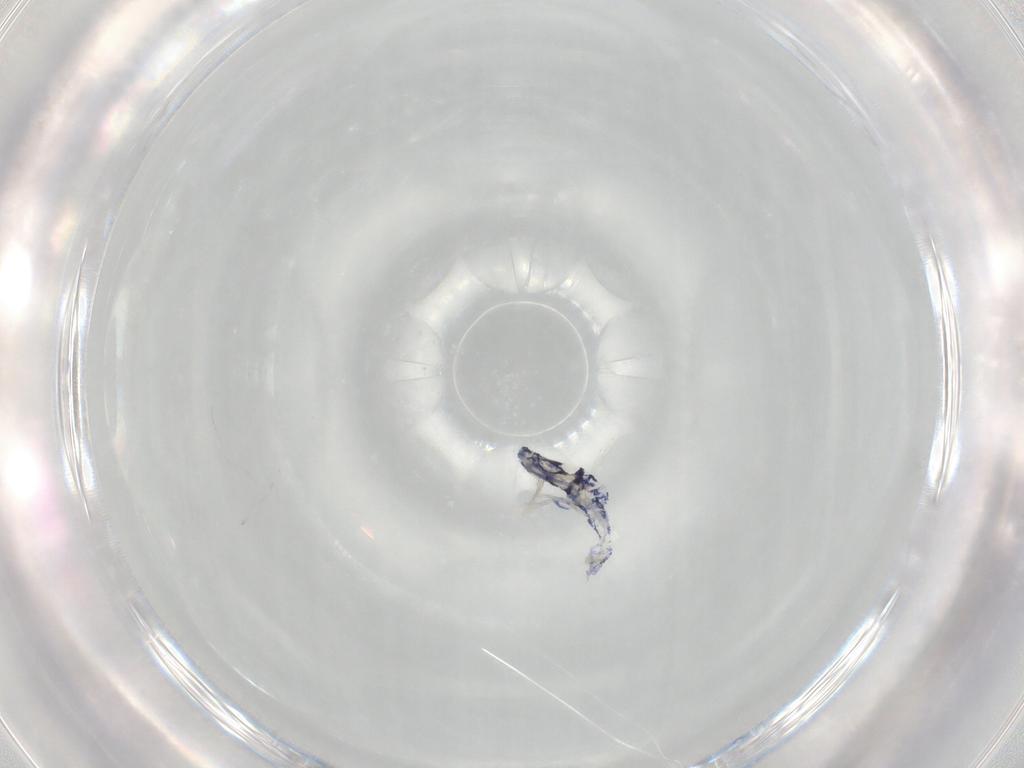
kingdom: Animalia
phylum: Arthropoda
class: Collembola
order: Entomobryomorpha
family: Entomobryidae
